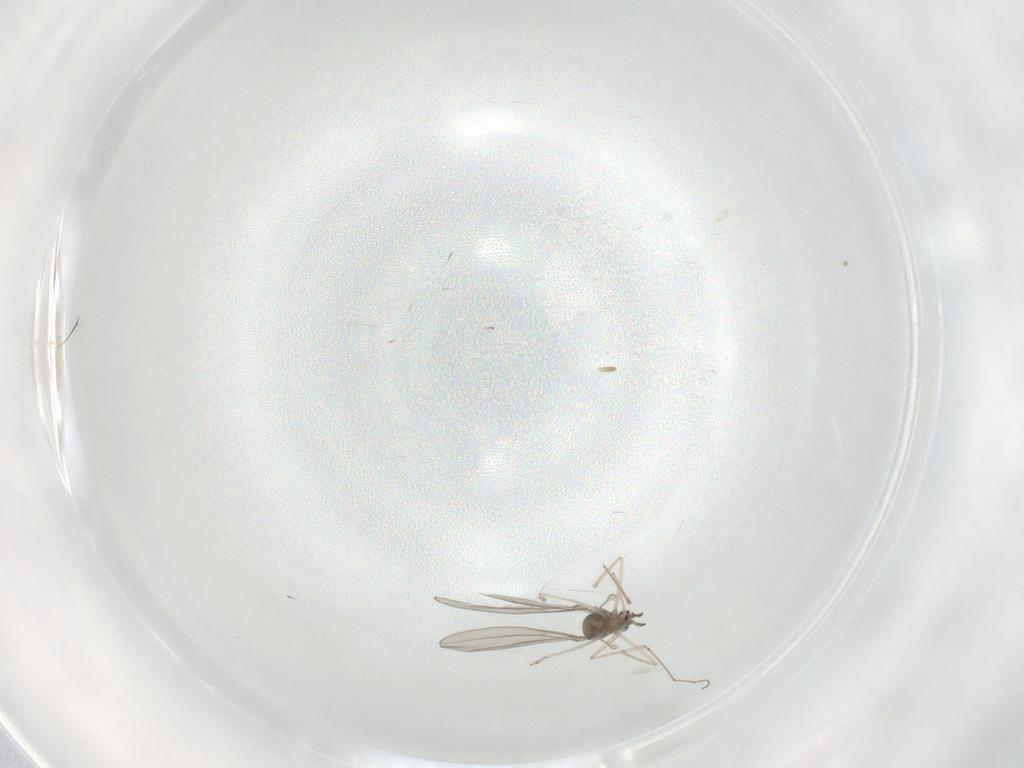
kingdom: Animalia
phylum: Arthropoda
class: Insecta
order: Diptera
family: Cecidomyiidae
